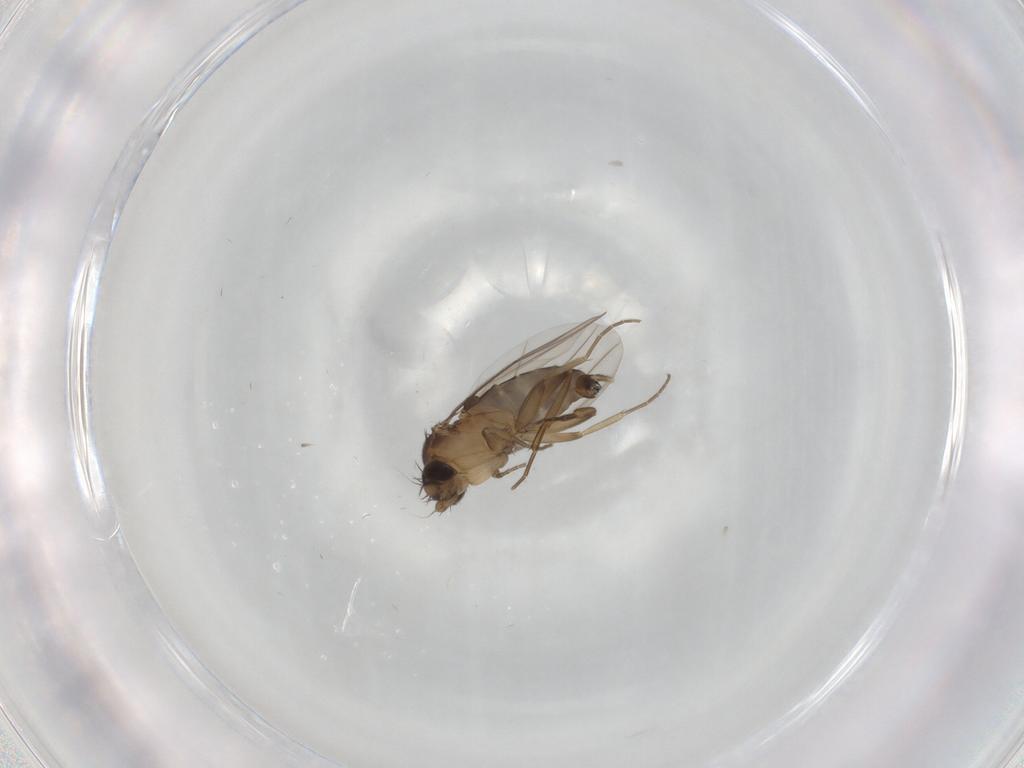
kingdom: Animalia
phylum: Arthropoda
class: Insecta
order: Diptera
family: Phoridae
